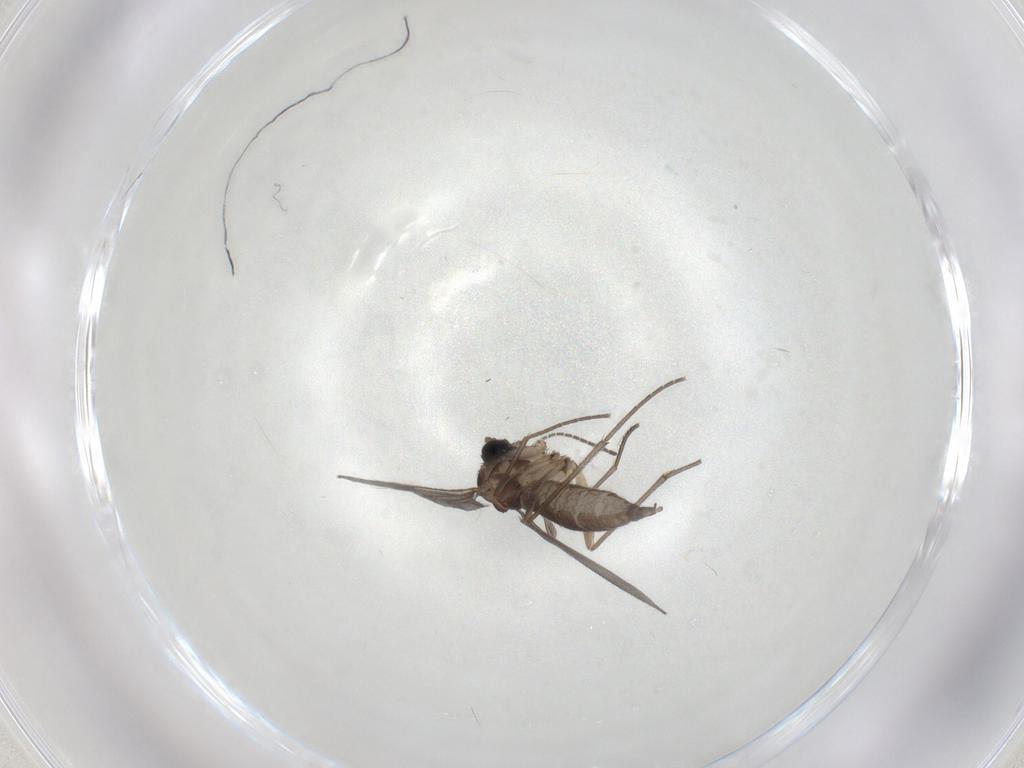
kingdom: Animalia
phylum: Arthropoda
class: Insecta
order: Diptera
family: Sciaridae
